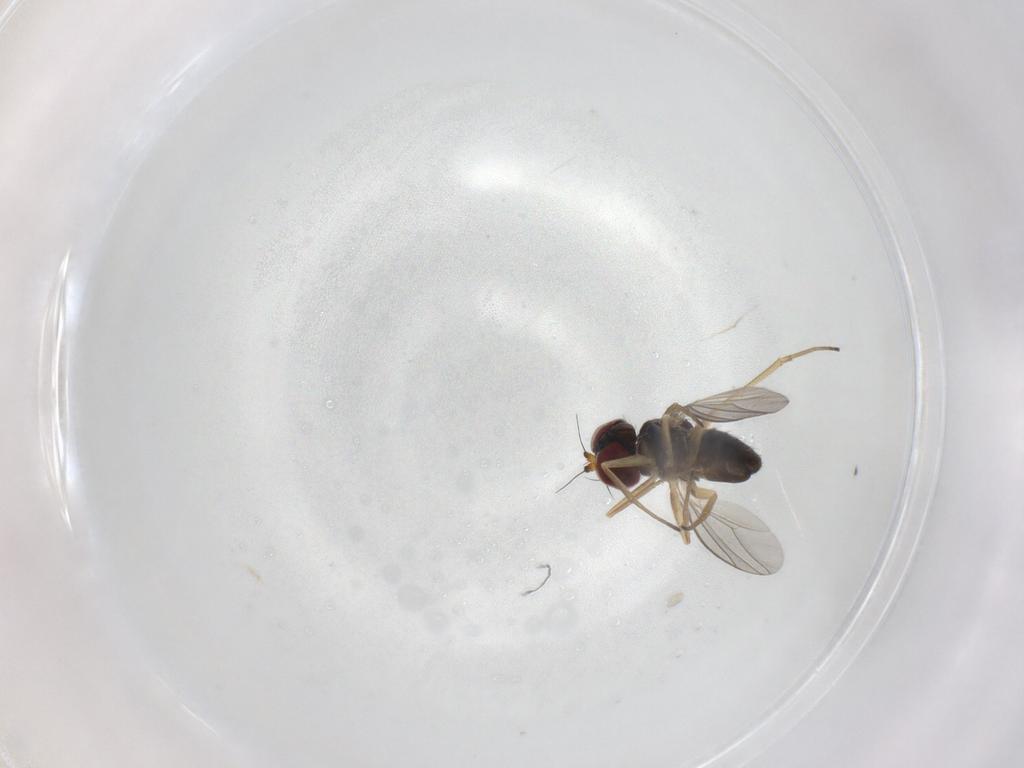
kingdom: Animalia
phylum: Arthropoda
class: Insecta
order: Diptera
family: Dolichopodidae
